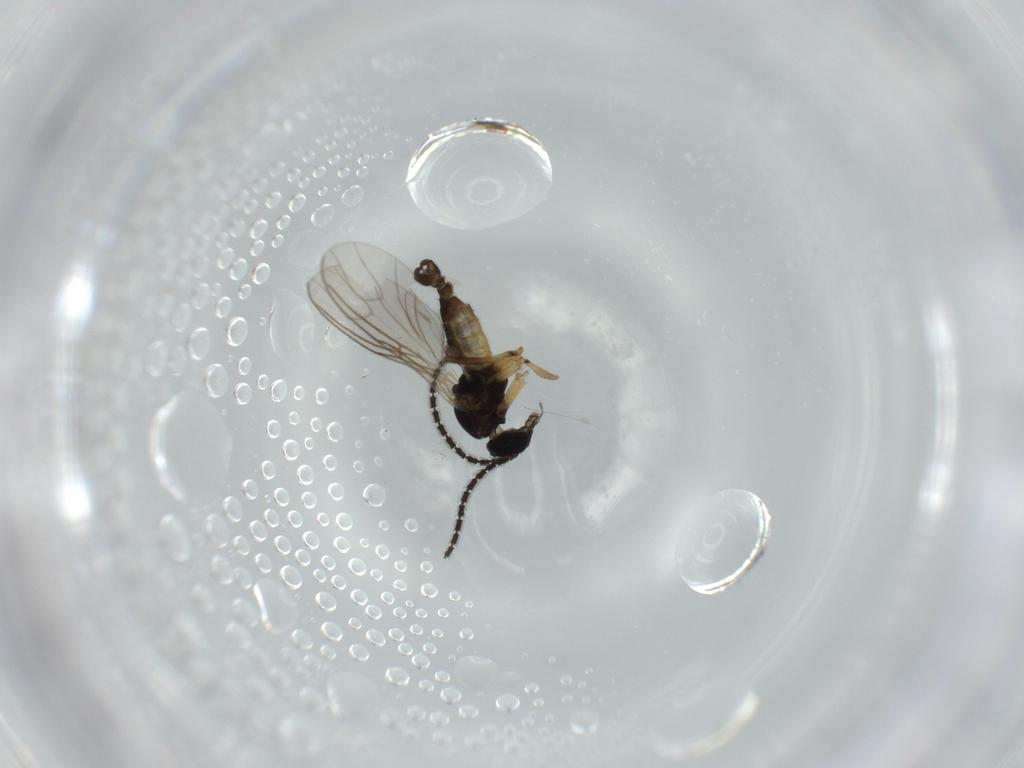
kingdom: Animalia
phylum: Arthropoda
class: Insecta
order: Diptera
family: Sciaridae
